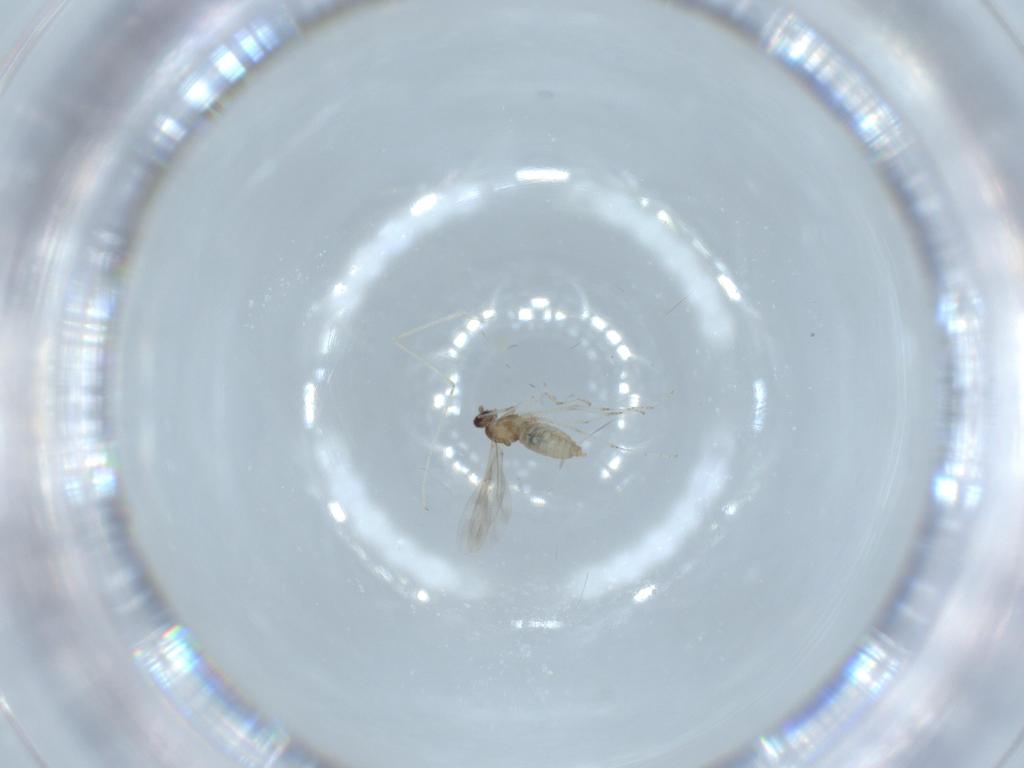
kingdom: Animalia
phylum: Arthropoda
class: Insecta
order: Diptera
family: Cecidomyiidae
